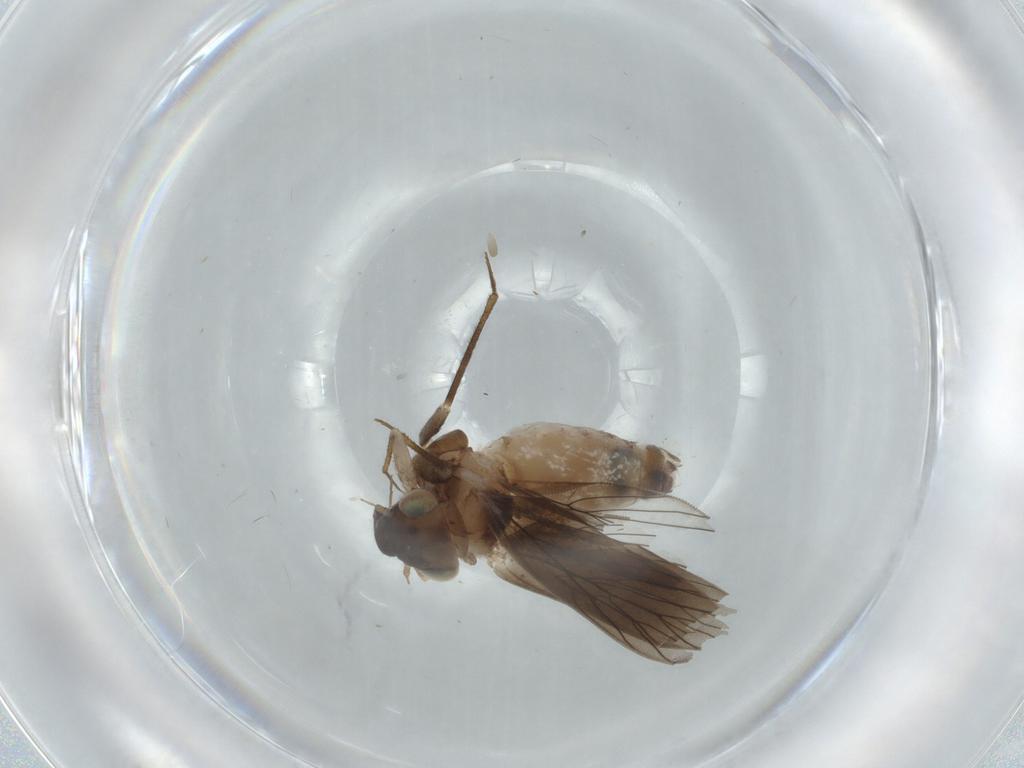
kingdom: Animalia
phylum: Arthropoda
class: Insecta
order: Psocodea
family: Lepidopsocidae
